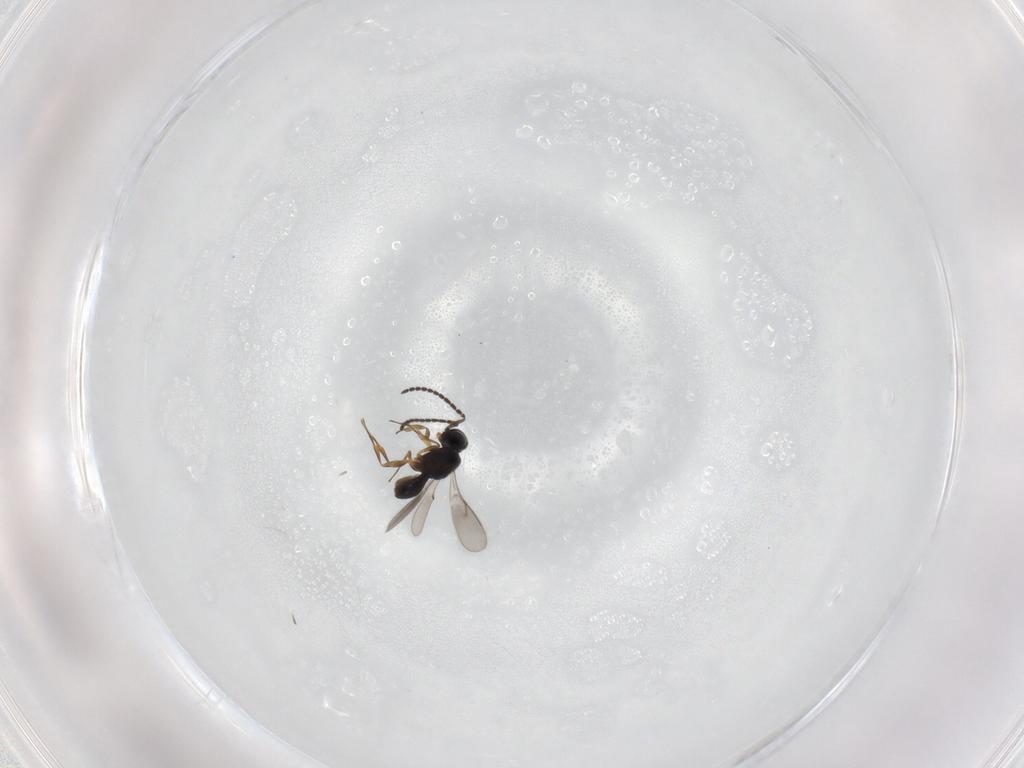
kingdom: Animalia
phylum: Arthropoda
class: Insecta
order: Hymenoptera
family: Scelionidae
